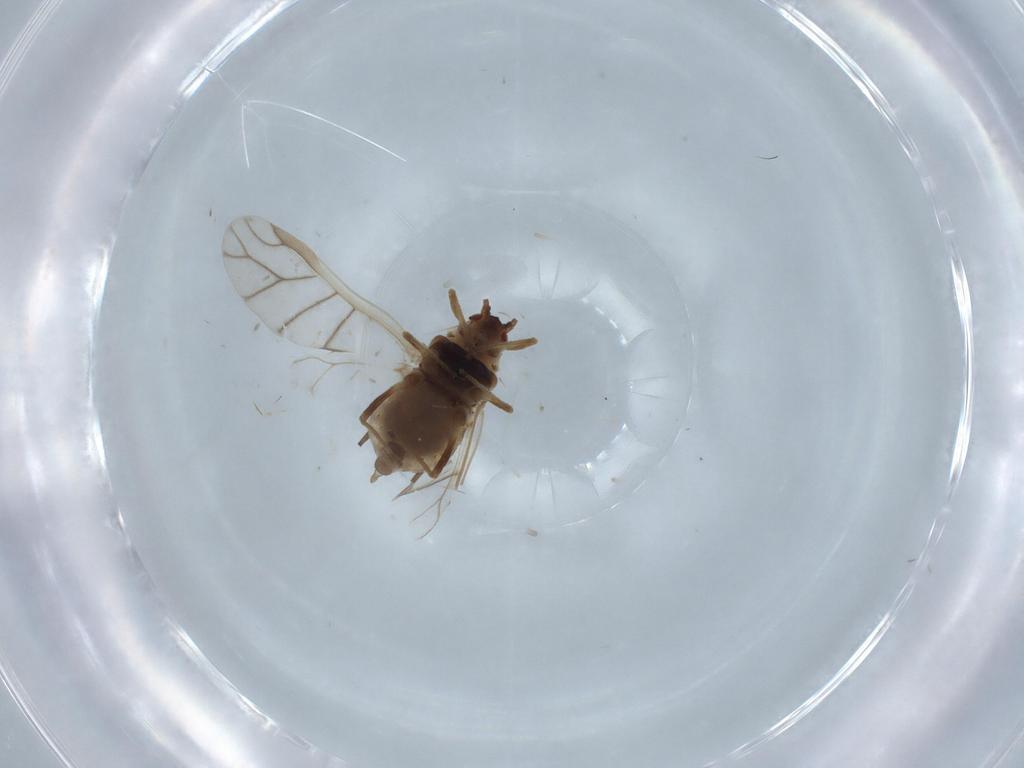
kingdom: Animalia
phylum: Arthropoda
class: Insecta
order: Hemiptera
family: Aphididae
